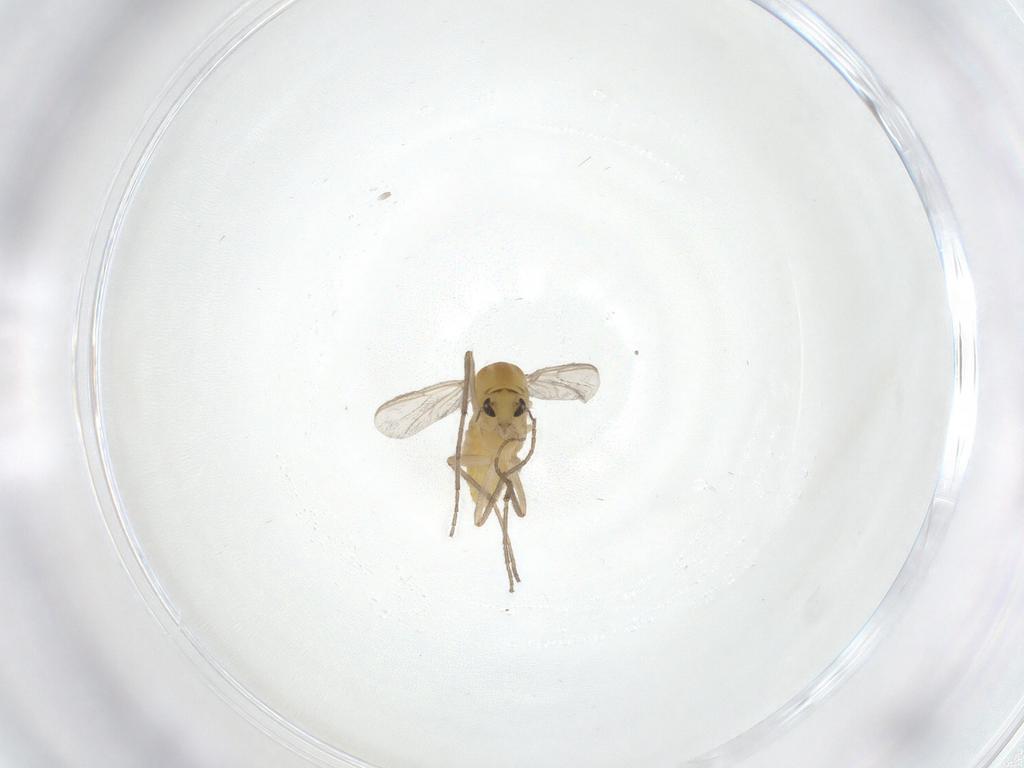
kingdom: Animalia
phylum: Arthropoda
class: Insecta
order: Diptera
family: Chironomidae
